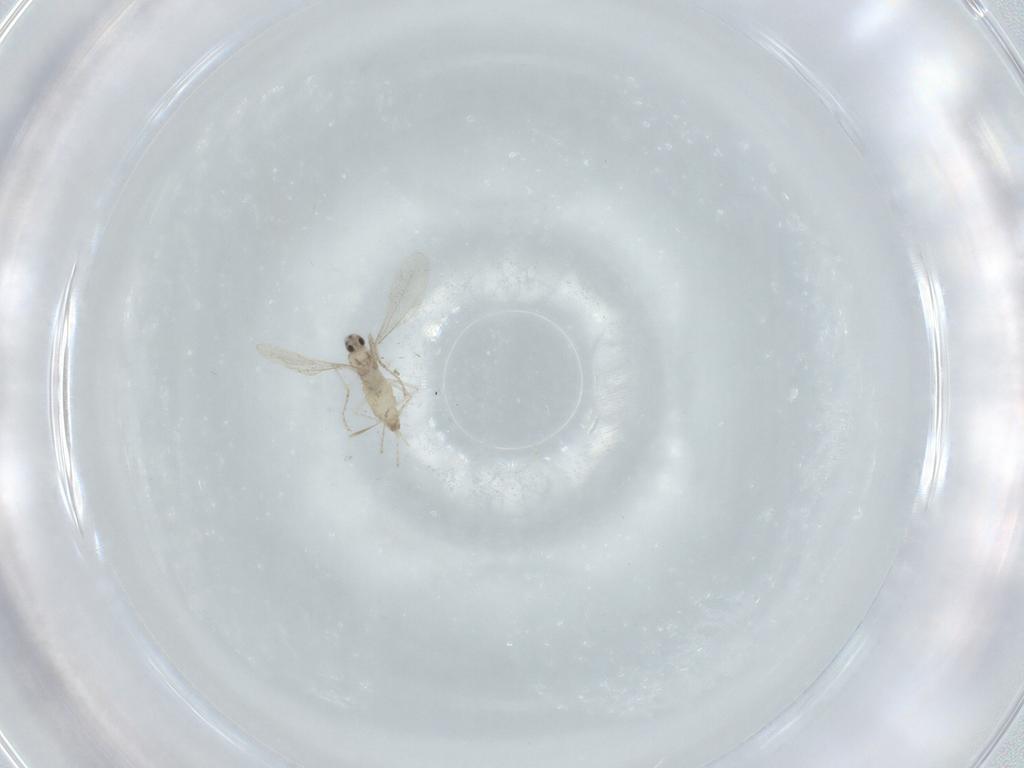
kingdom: Animalia
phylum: Arthropoda
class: Insecta
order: Diptera
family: Cecidomyiidae
